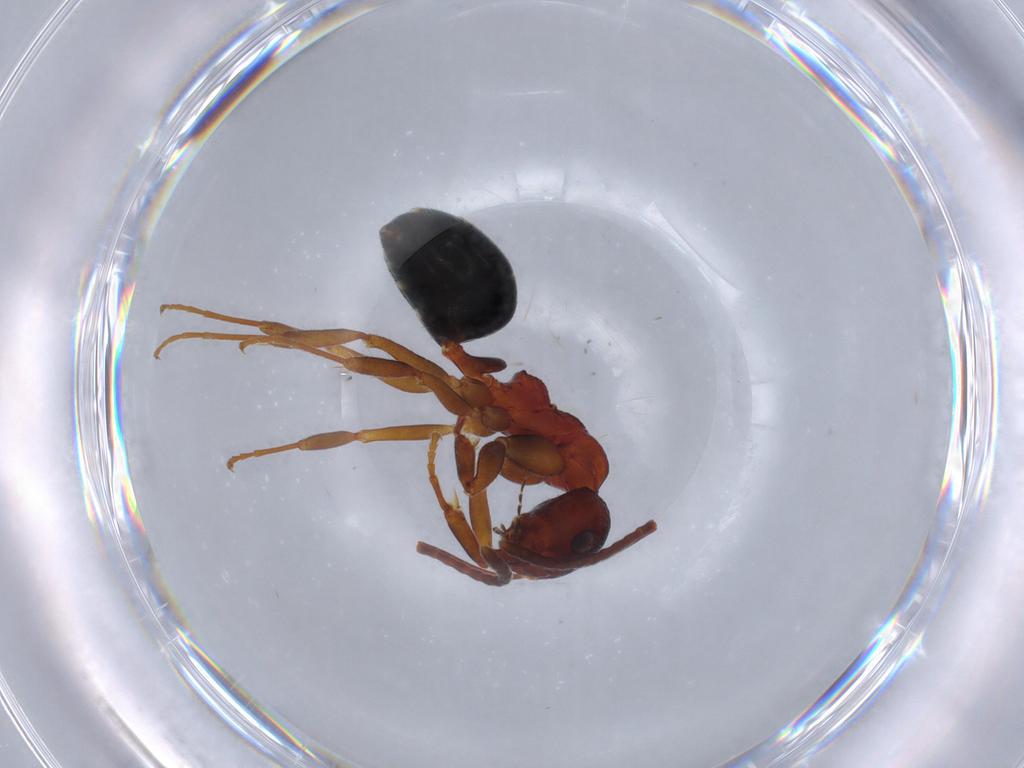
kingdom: Animalia
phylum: Arthropoda
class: Insecta
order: Hymenoptera
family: Formicidae
